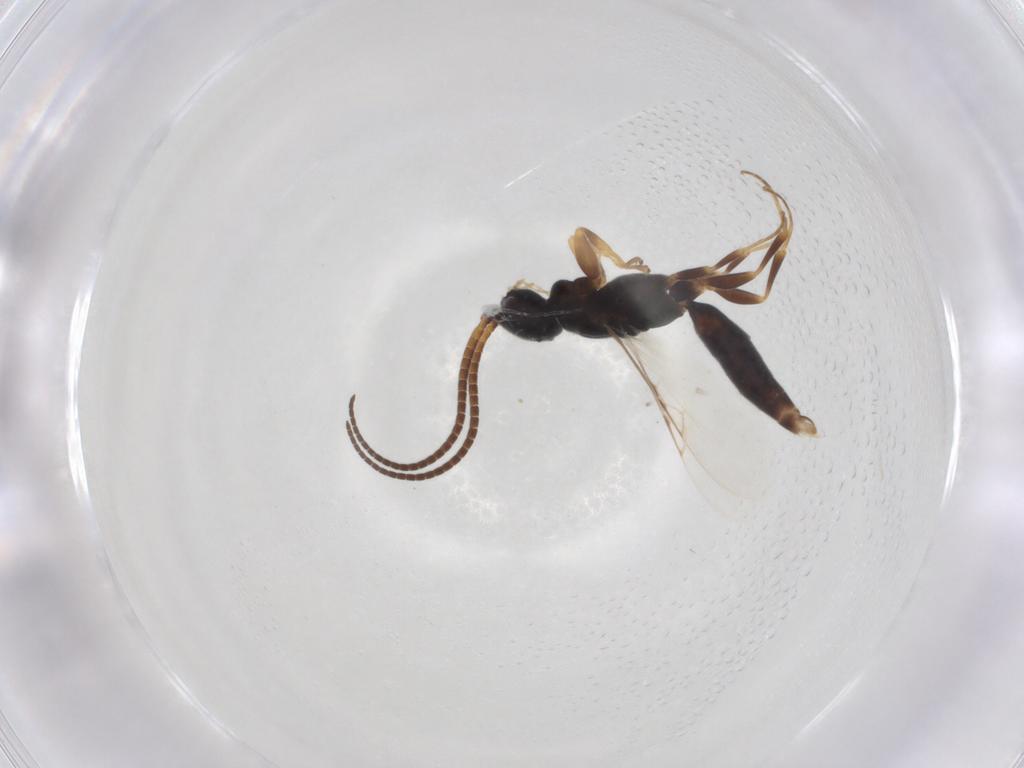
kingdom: Animalia
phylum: Arthropoda
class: Insecta
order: Hymenoptera
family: Sclerogibbidae
